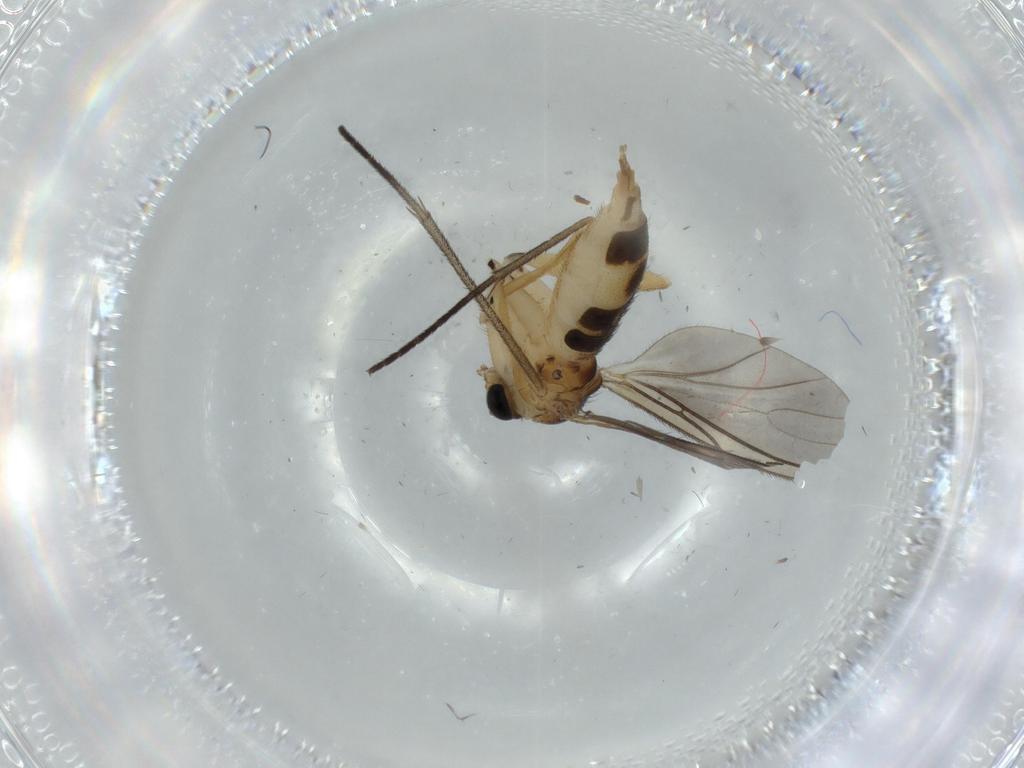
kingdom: Animalia
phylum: Arthropoda
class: Insecta
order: Diptera
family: Sciaridae
